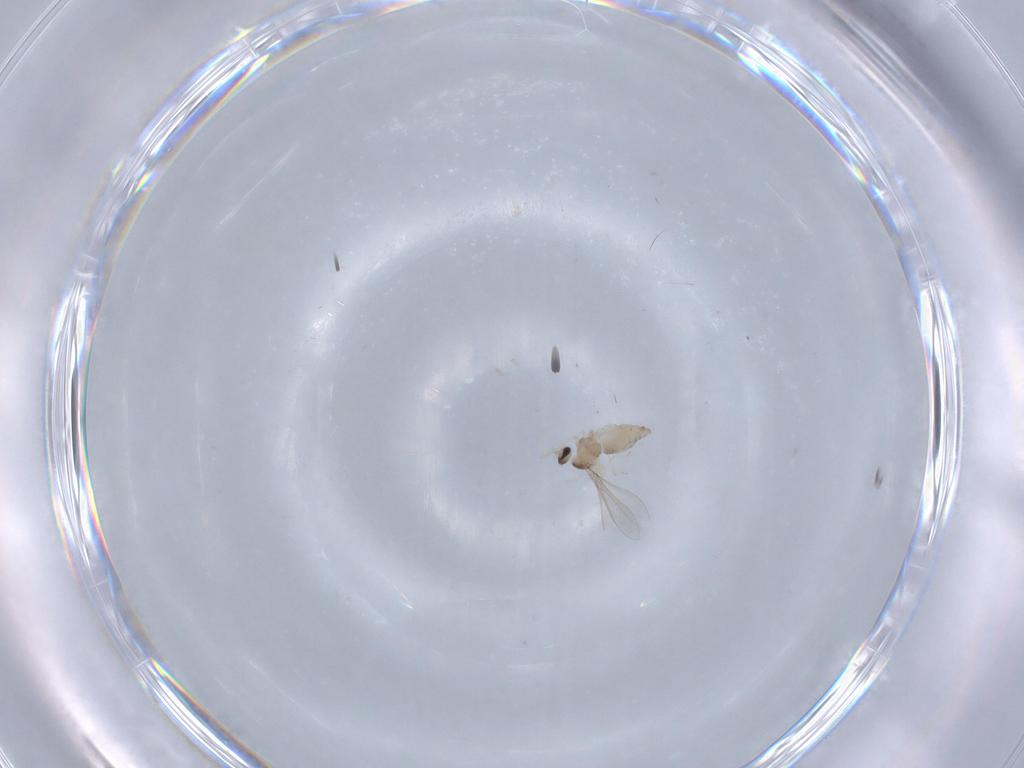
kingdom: Animalia
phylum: Arthropoda
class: Insecta
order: Diptera
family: Cecidomyiidae
